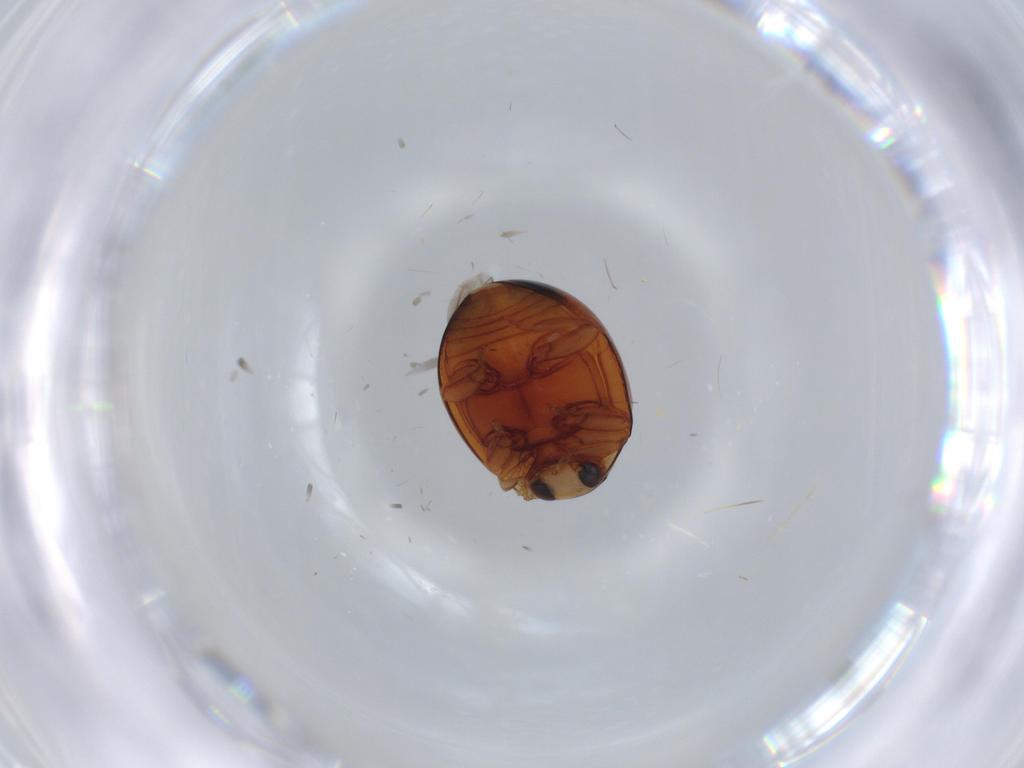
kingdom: Animalia
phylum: Arthropoda
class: Insecta
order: Coleoptera
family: Coccinellidae
